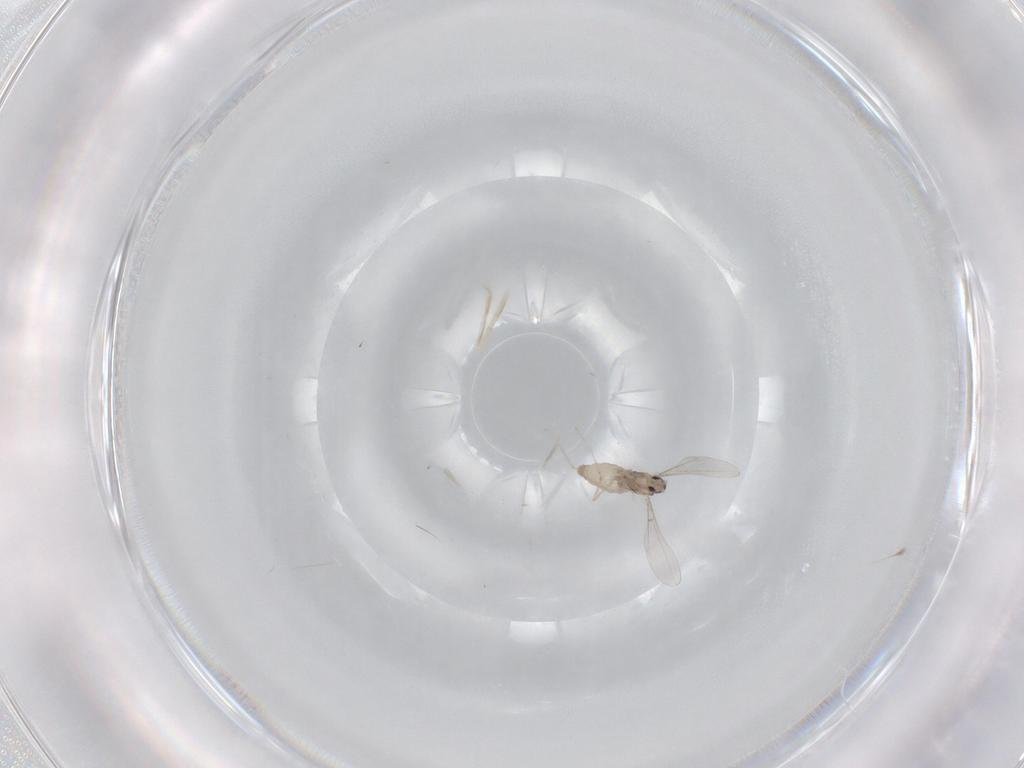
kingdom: Animalia
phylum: Arthropoda
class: Insecta
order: Diptera
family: Cecidomyiidae
